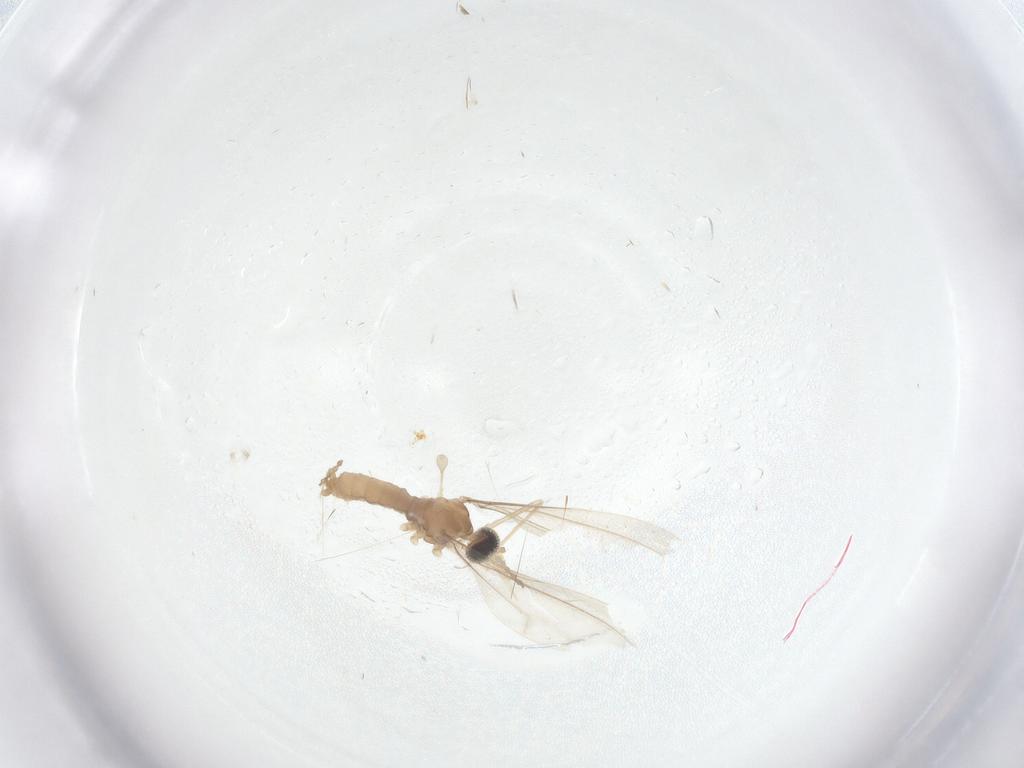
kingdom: Animalia
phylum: Arthropoda
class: Insecta
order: Diptera
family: Cecidomyiidae
